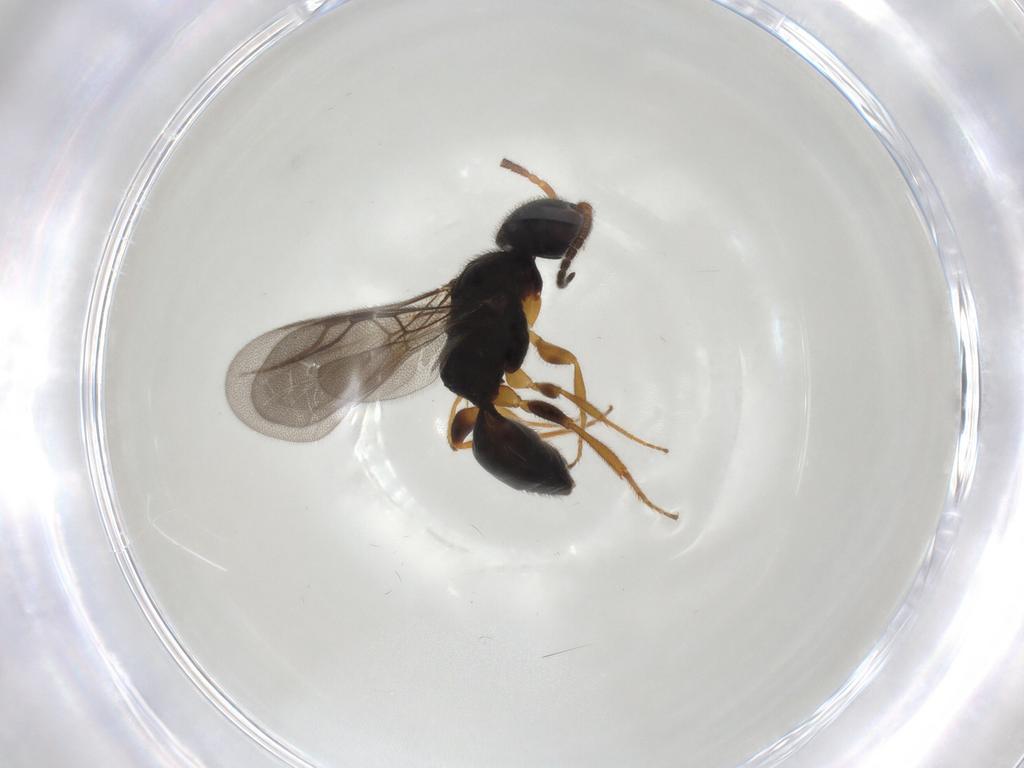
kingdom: Animalia
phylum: Arthropoda
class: Insecta
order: Hymenoptera
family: Bethylidae
